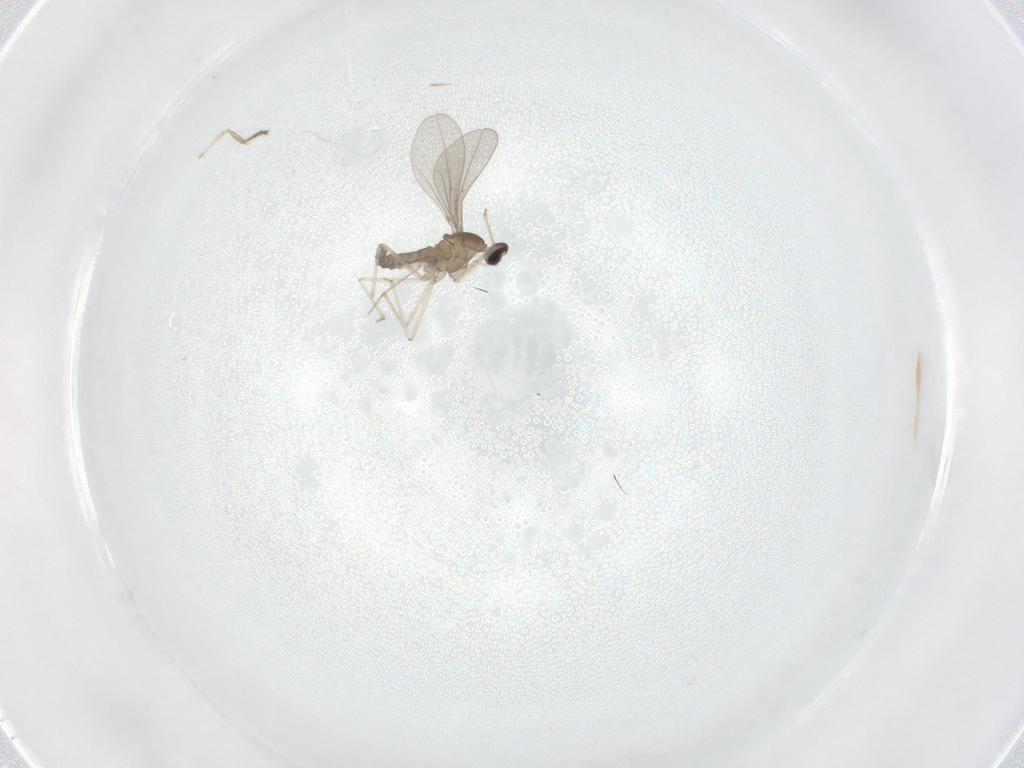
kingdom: Animalia
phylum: Arthropoda
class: Insecta
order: Diptera
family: Cecidomyiidae
